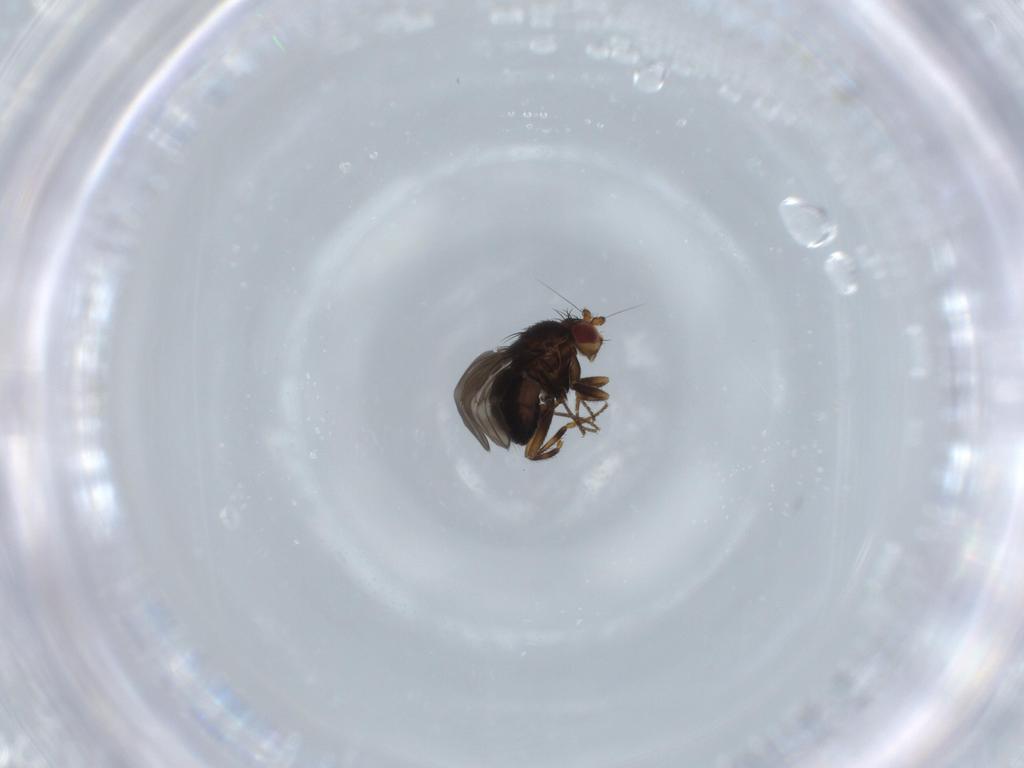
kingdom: Animalia
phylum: Arthropoda
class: Insecta
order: Diptera
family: Sphaeroceridae
